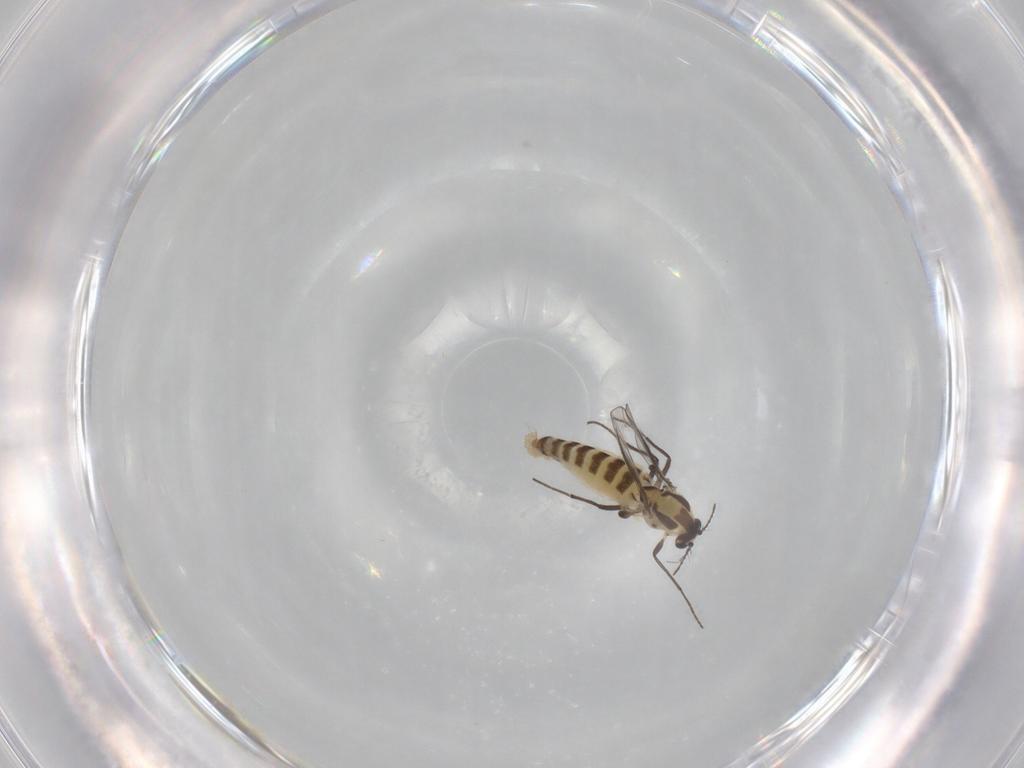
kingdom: Animalia
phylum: Arthropoda
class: Insecta
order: Diptera
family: Chironomidae
